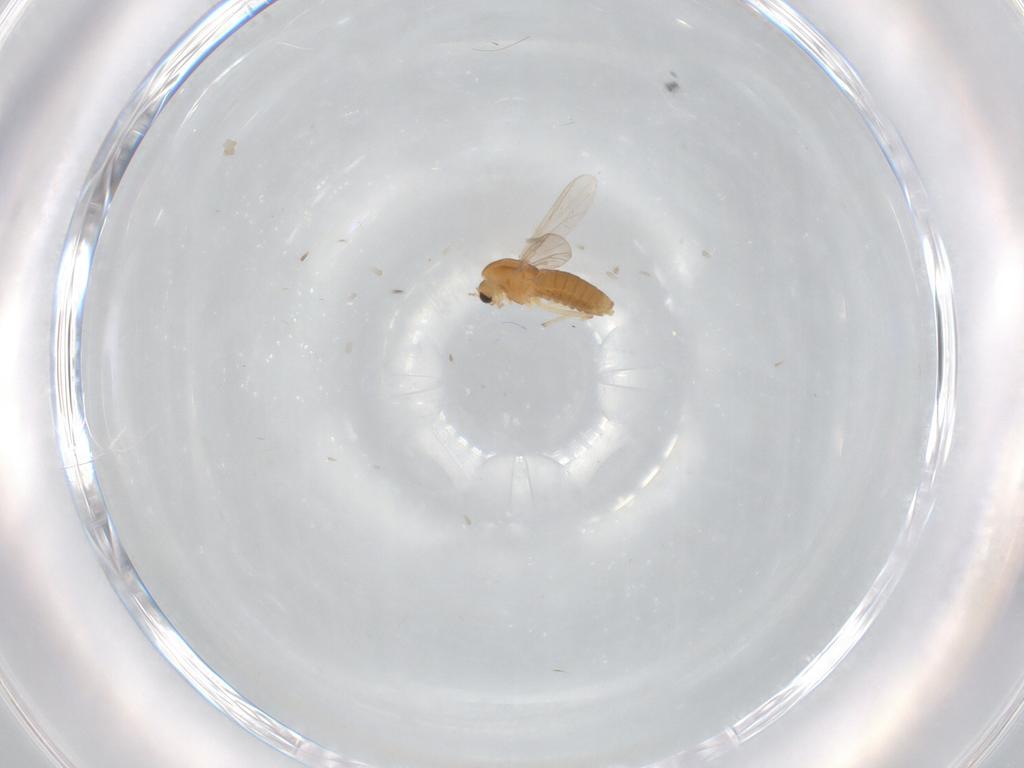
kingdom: Animalia
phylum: Arthropoda
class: Insecta
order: Diptera
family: Chironomidae
